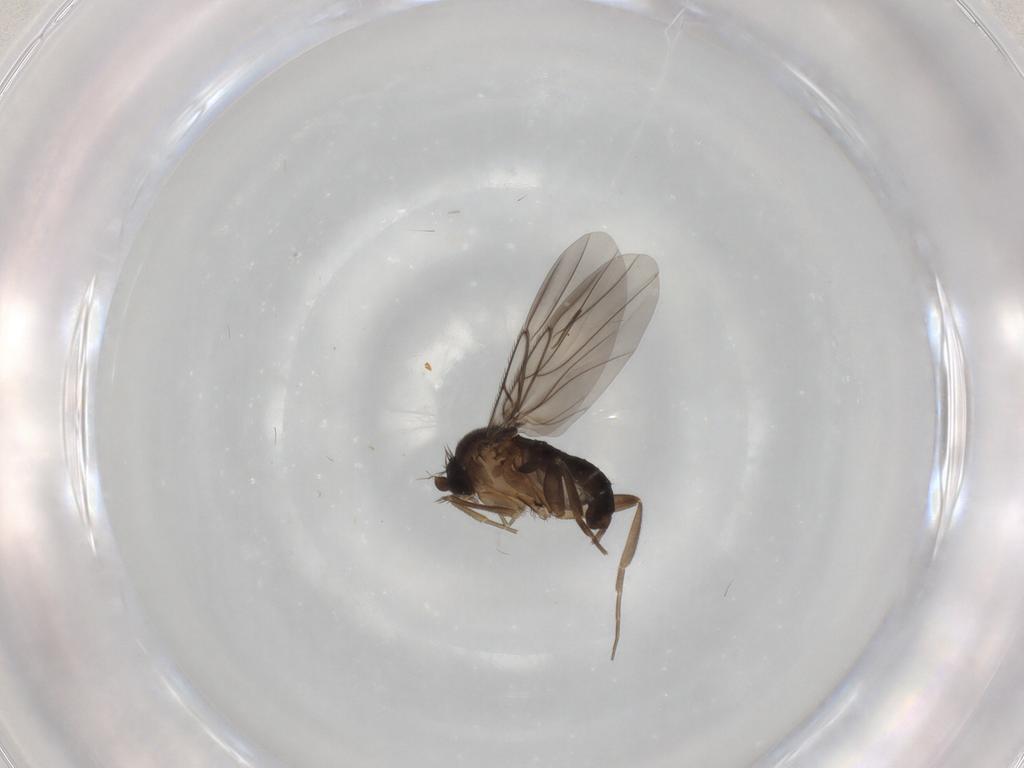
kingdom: Animalia
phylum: Arthropoda
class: Insecta
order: Diptera
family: Phoridae
